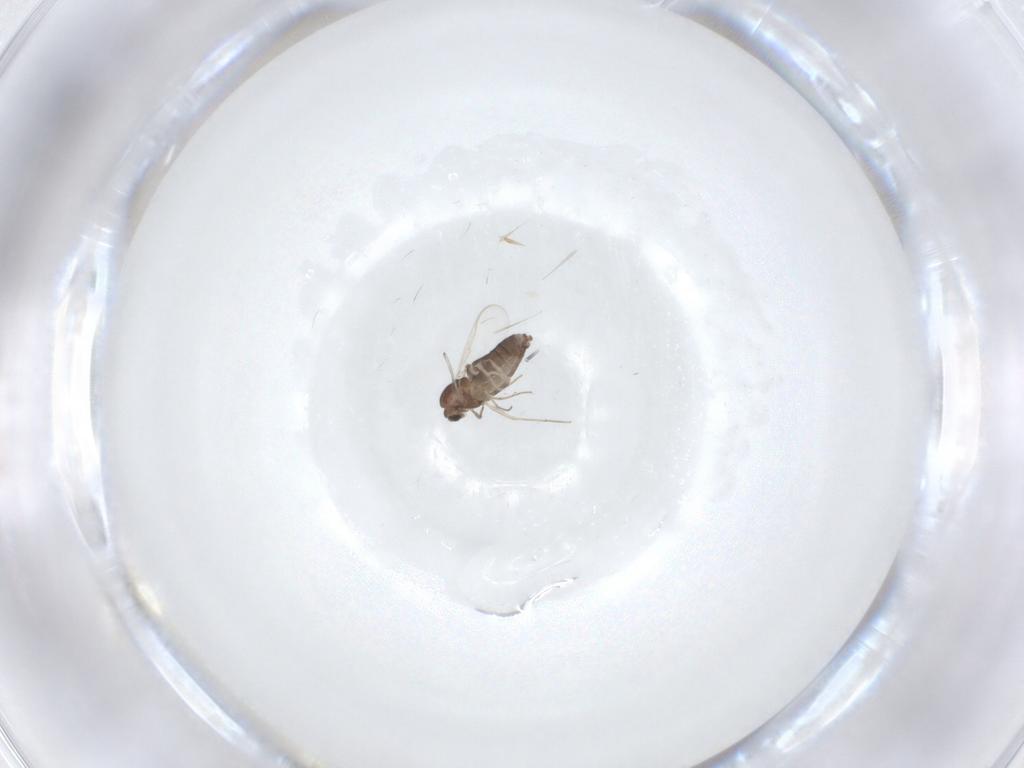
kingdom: Animalia
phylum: Arthropoda
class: Insecta
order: Diptera
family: Chironomidae
